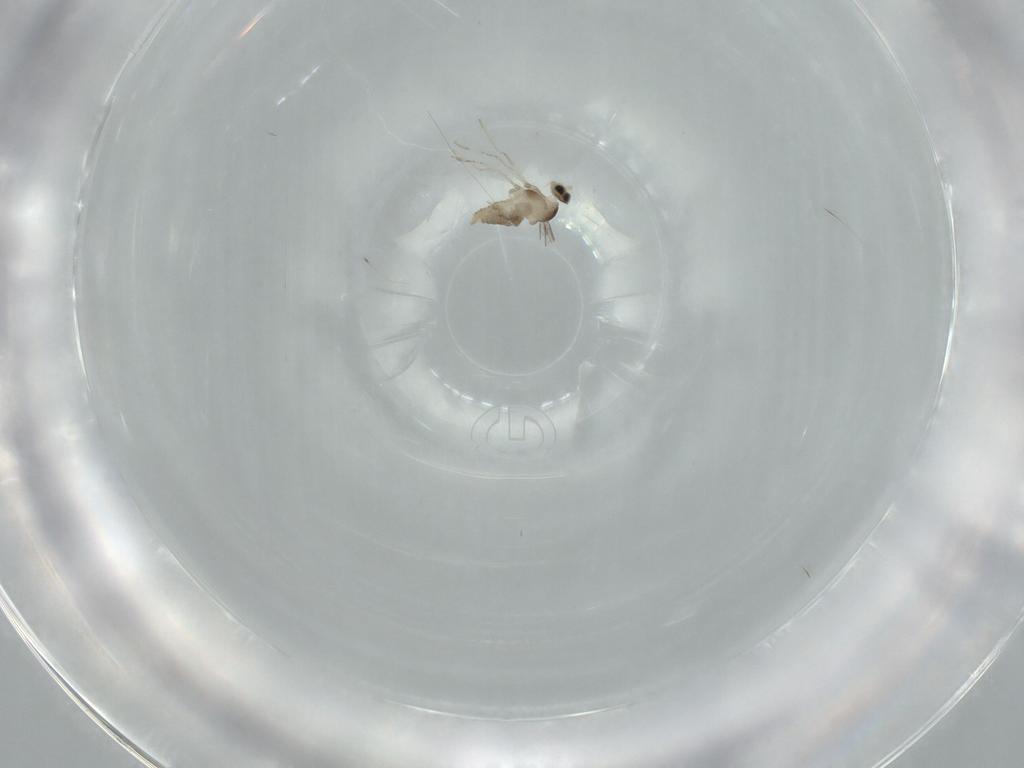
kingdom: Animalia
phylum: Arthropoda
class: Insecta
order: Diptera
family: Cecidomyiidae
